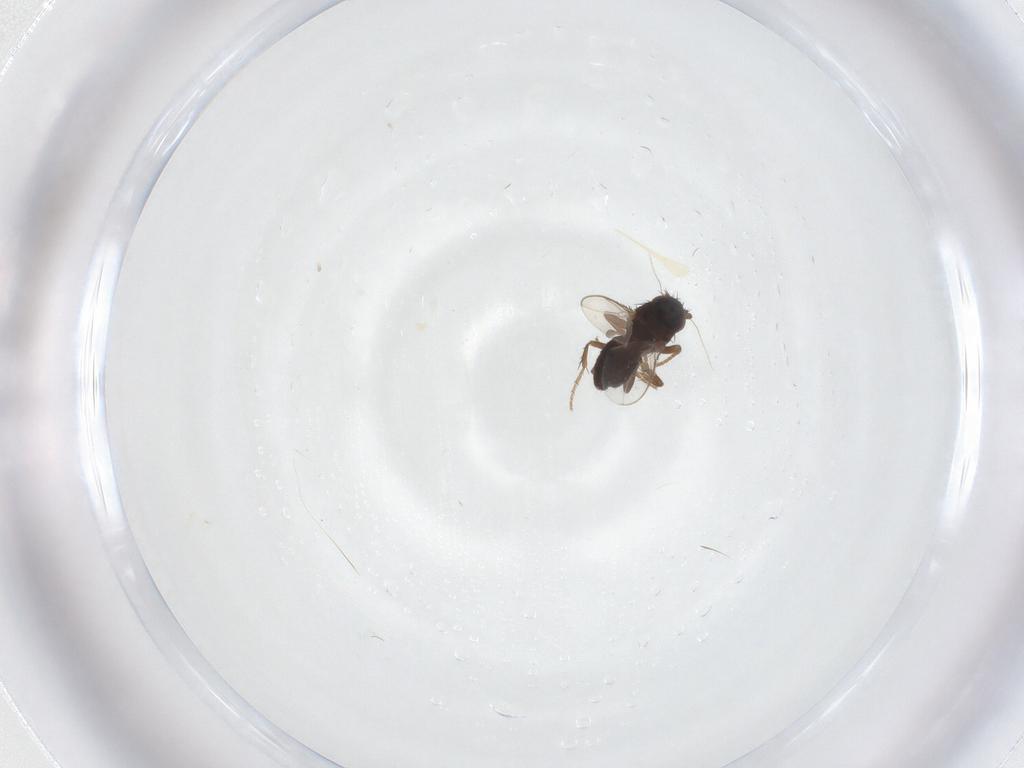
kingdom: Animalia
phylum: Arthropoda
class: Insecta
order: Diptera
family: Sphaeroceridae
